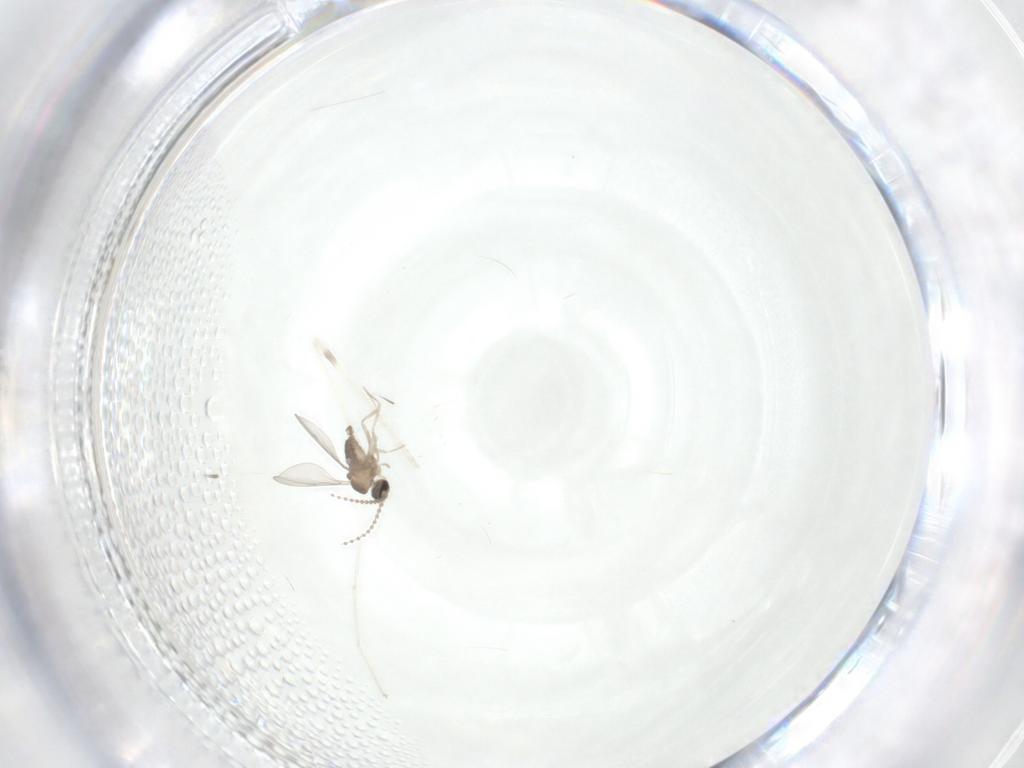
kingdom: Animalia
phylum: Arthropoda
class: Insecta
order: Diptera
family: Cecidomyiidae
